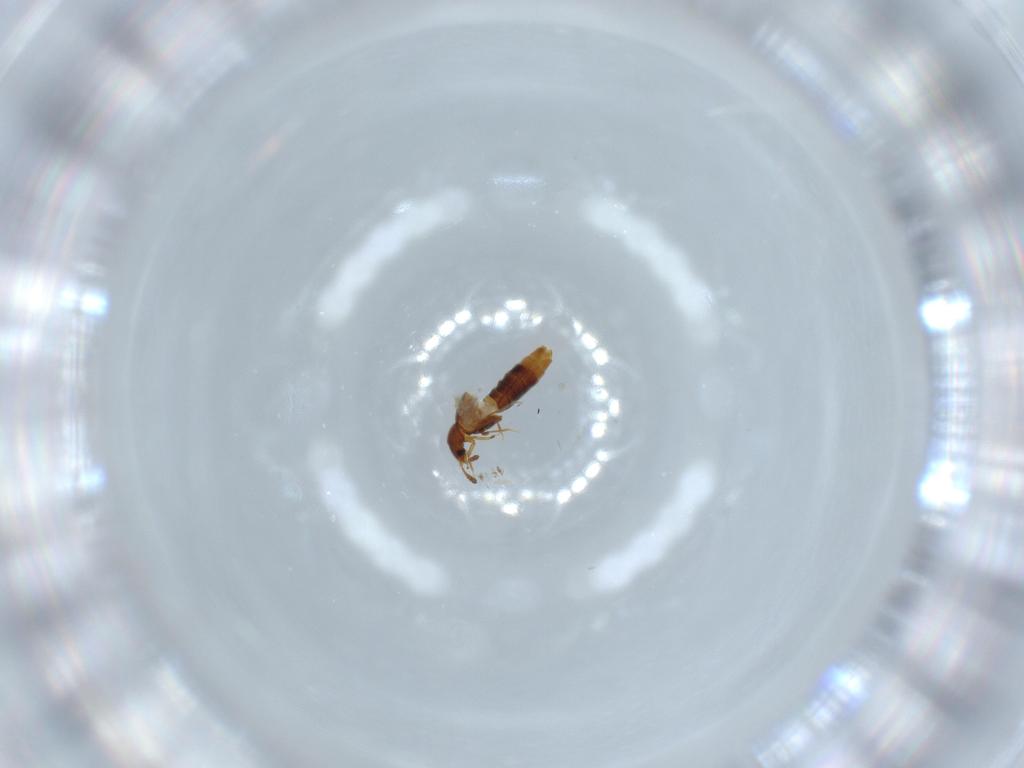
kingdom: Animalia
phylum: Arthropoda
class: Insecta
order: Coleoptera
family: Staphylinidae
